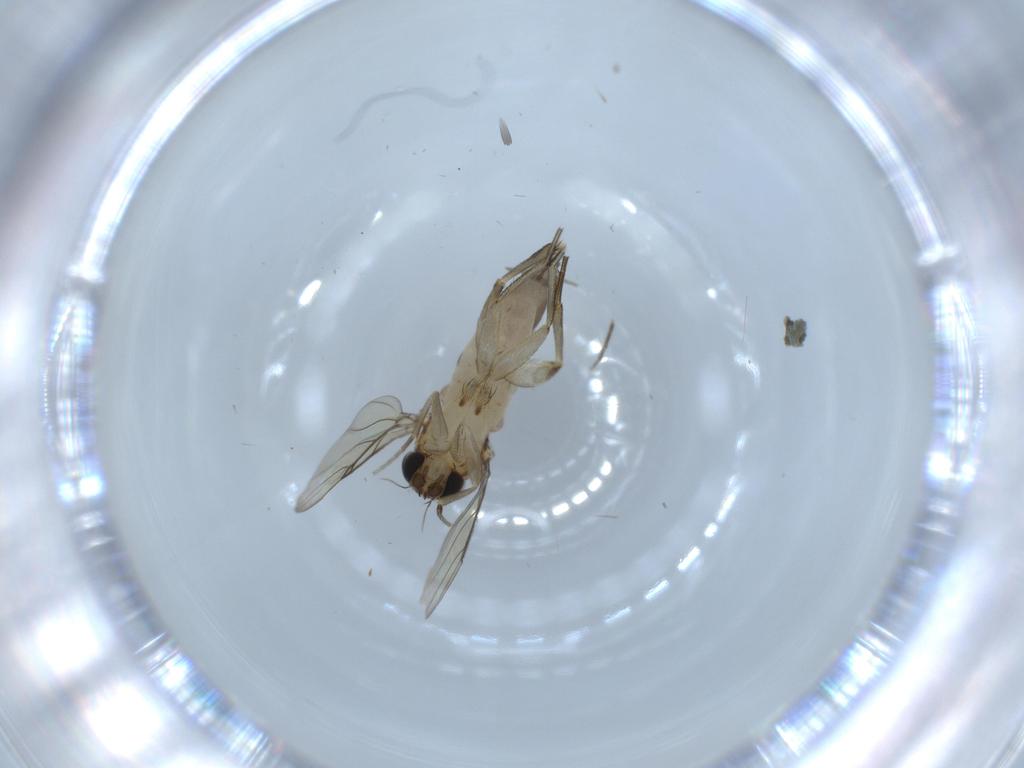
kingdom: Animalia
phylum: Arthropoda
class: Insecta
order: Diptera
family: Phoridae
